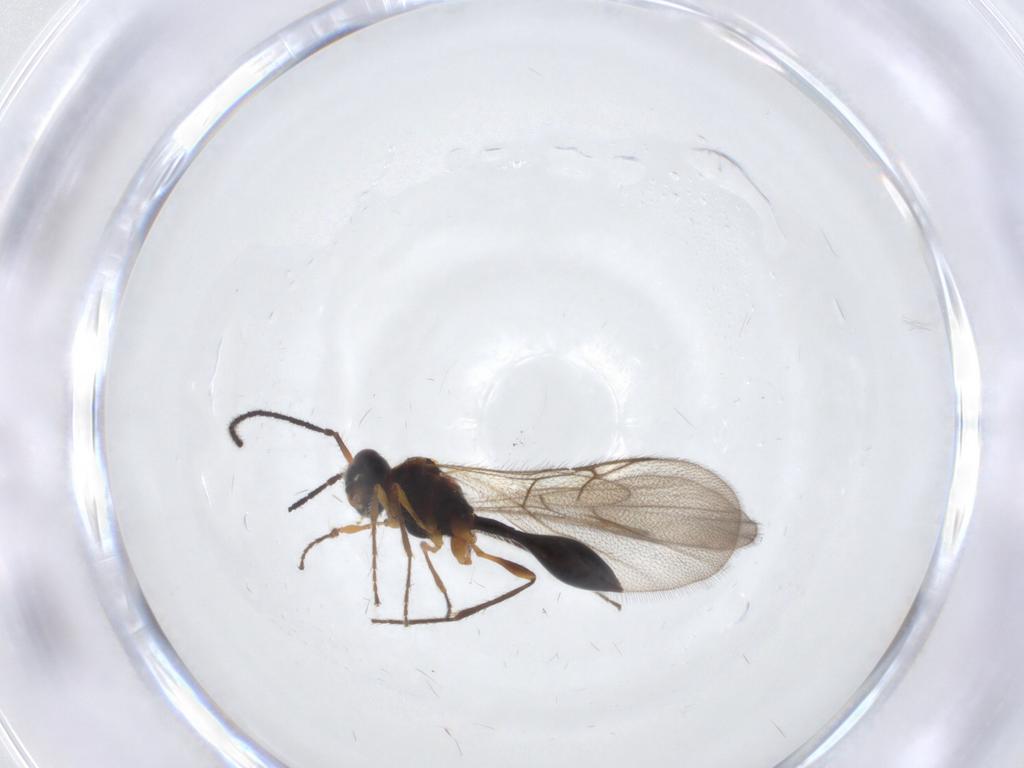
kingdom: Animalia
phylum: Arthropoda
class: Insecta
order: Hymenoptera
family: Diapriidae
